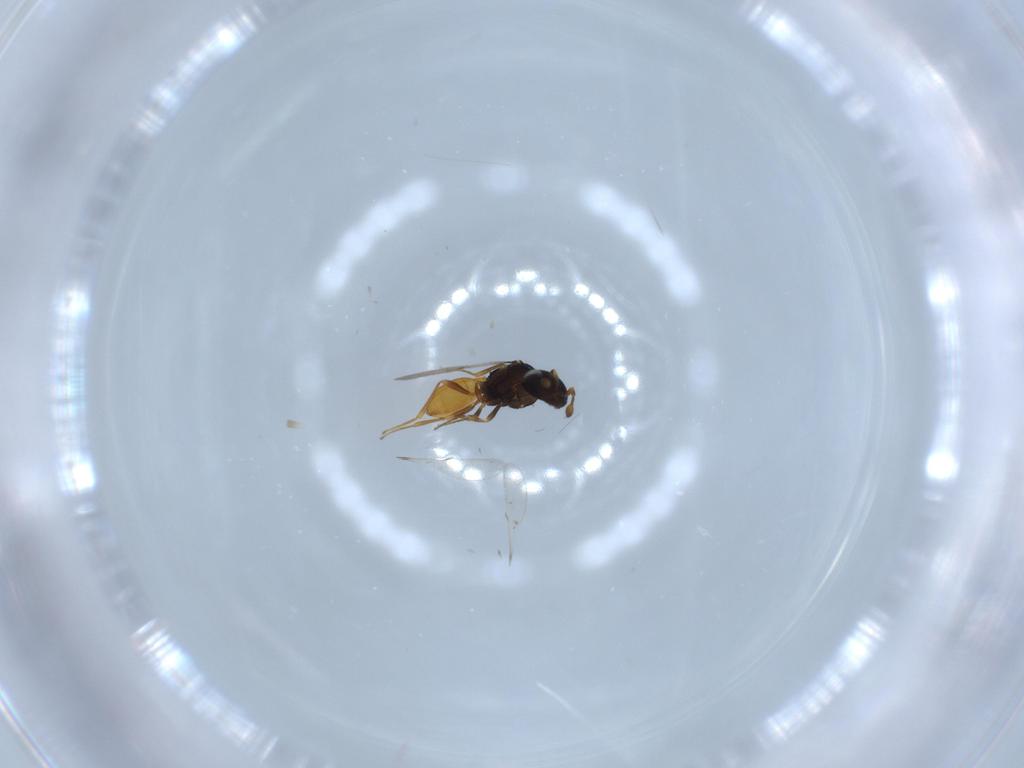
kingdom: Animalia
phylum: Arthropoda
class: Insecta
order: Hymenoptera
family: Scelionidae
